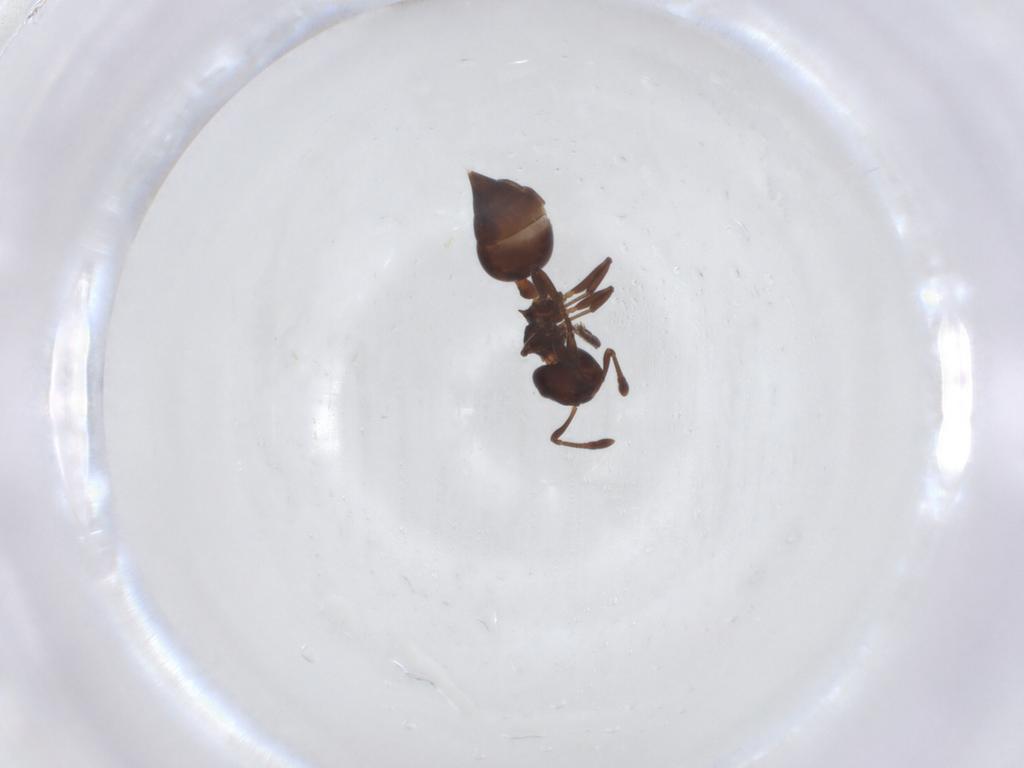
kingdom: Animalia
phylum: Arthropoda
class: Insecta
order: Hymenoptera
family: Formicidae
